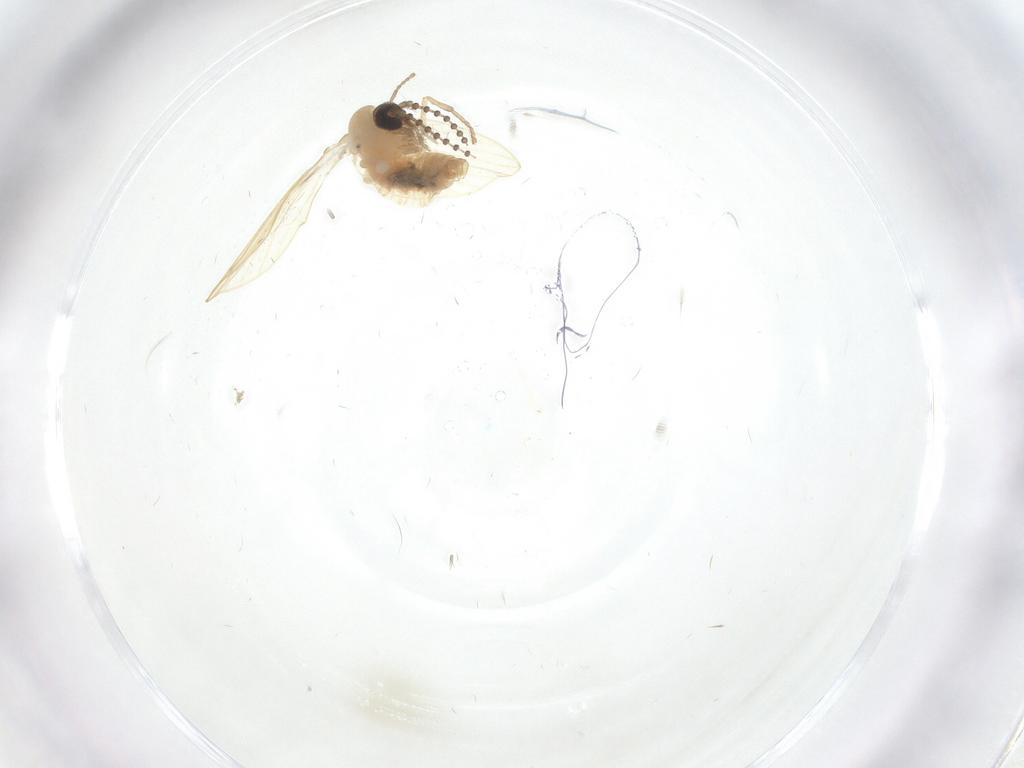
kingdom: Animalia
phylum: Arthropoda
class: Insecta
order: Diptera
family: Psychodidae
